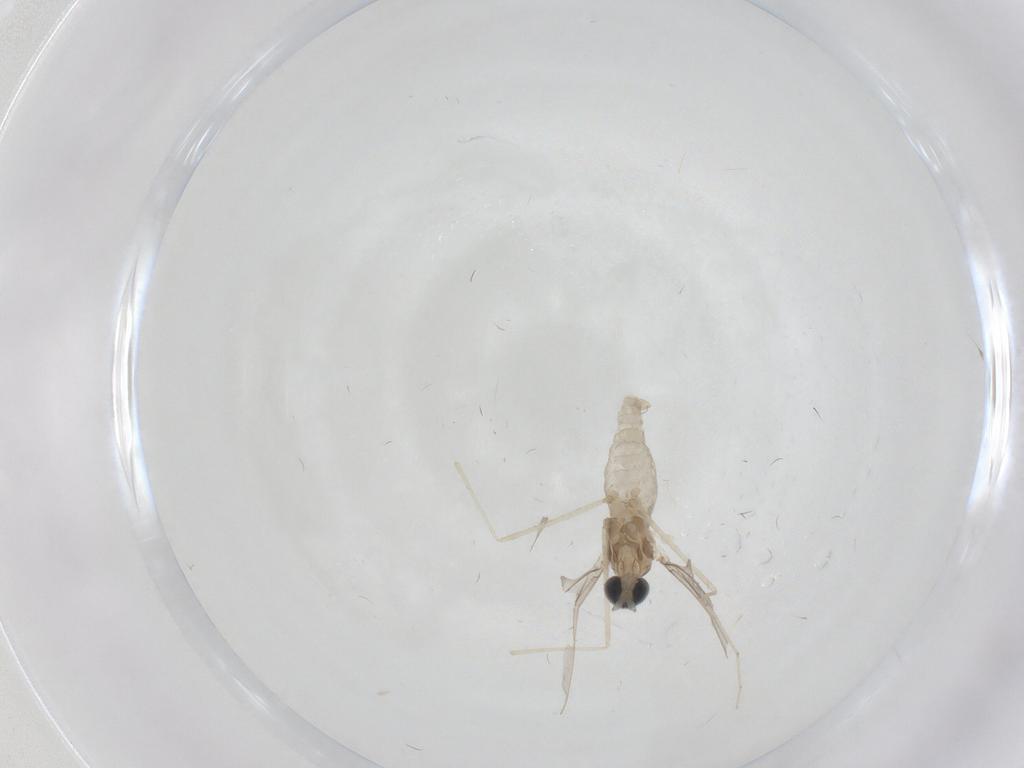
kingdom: Animalia
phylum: Arthropoda
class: Insecta
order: Diptera
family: Cecidomyiidae
